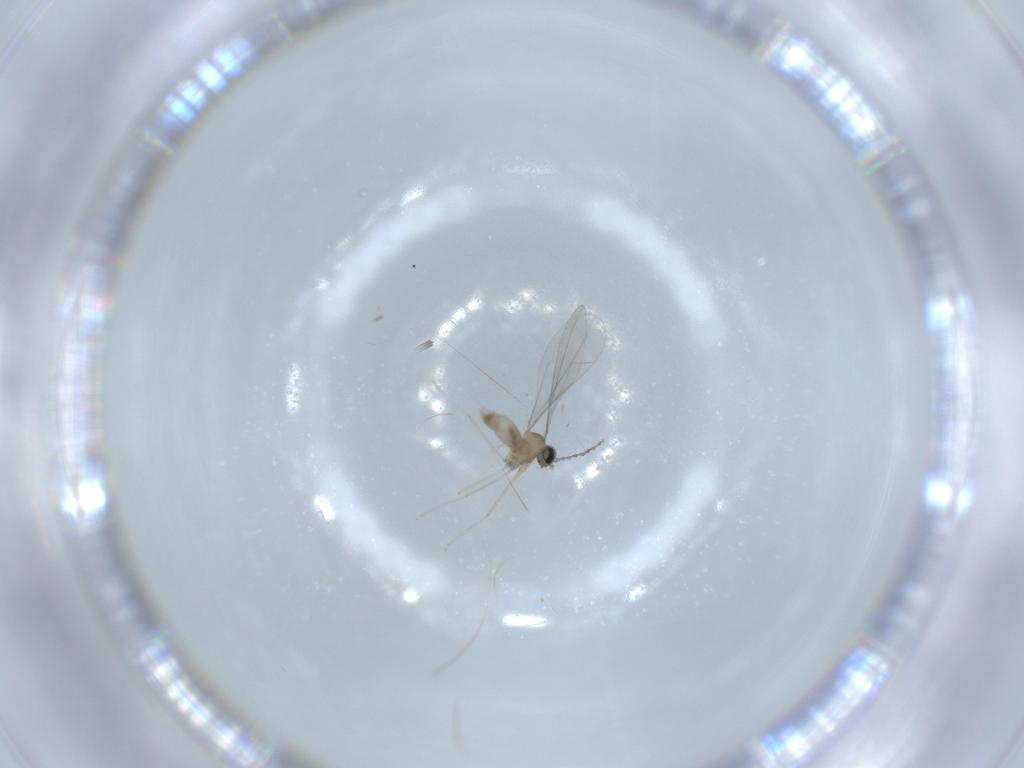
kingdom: Animalia
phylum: Arthropoda
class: Insecta
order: Diptera
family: Cecidomyiidae
